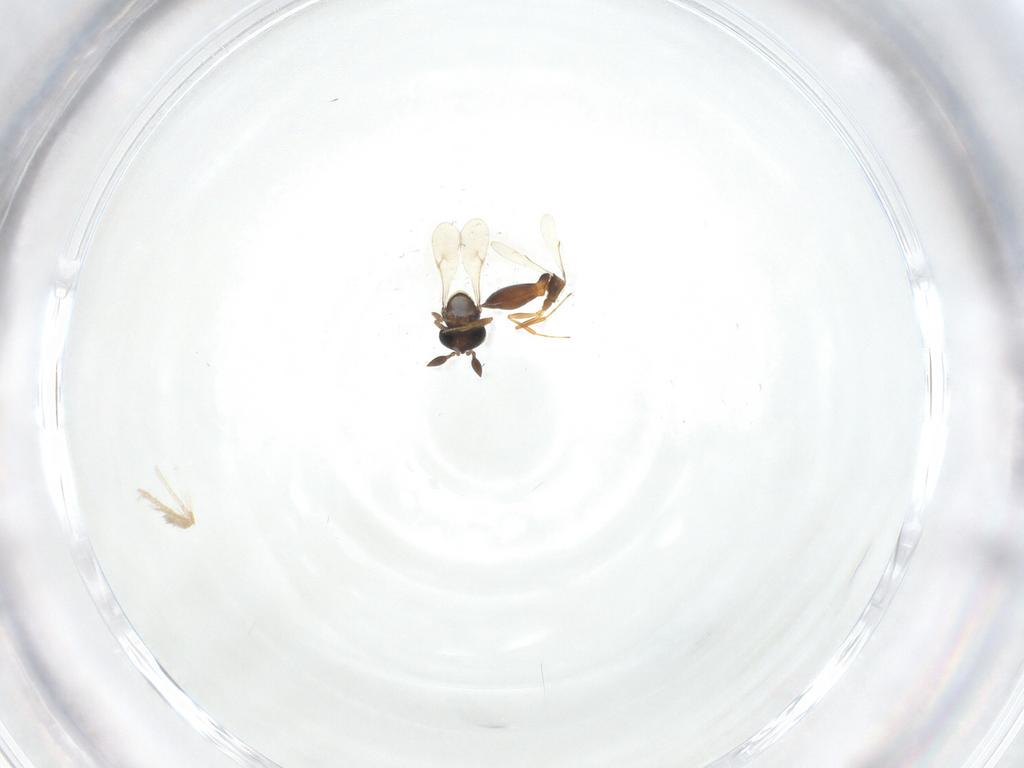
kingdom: Animalia
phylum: Arthropoda
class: Insecta
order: Hymenoptera
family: Scelionidae
